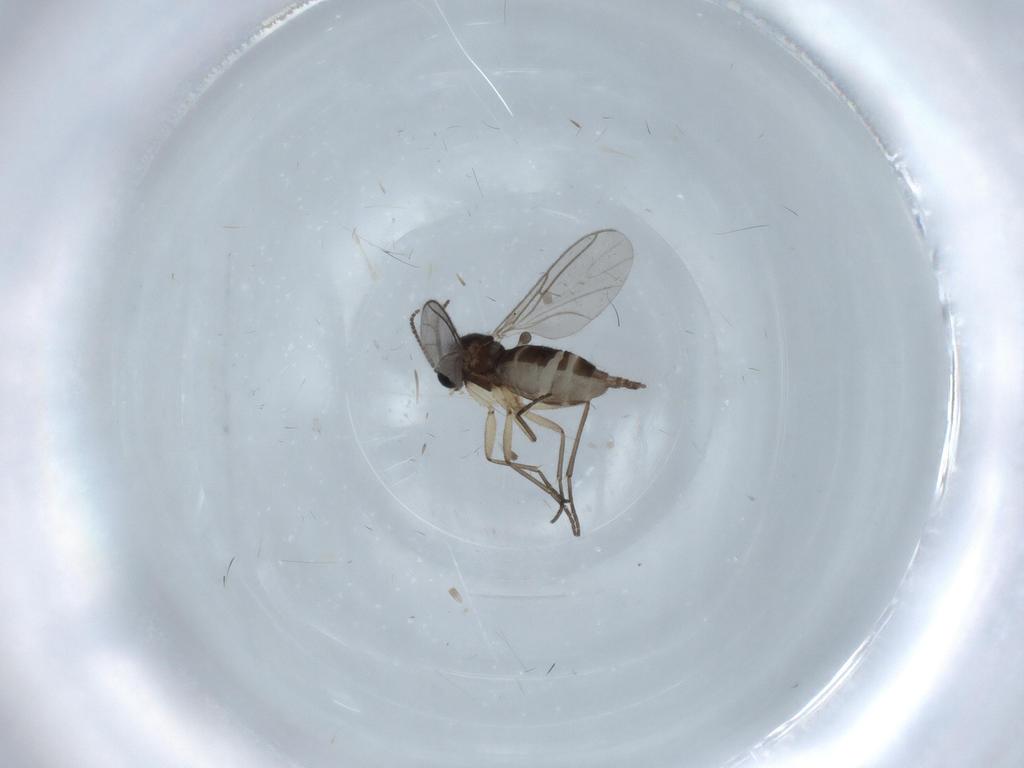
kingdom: Animalia
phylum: Arthropoda
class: Insecta
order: Diptera
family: Sciaridae
